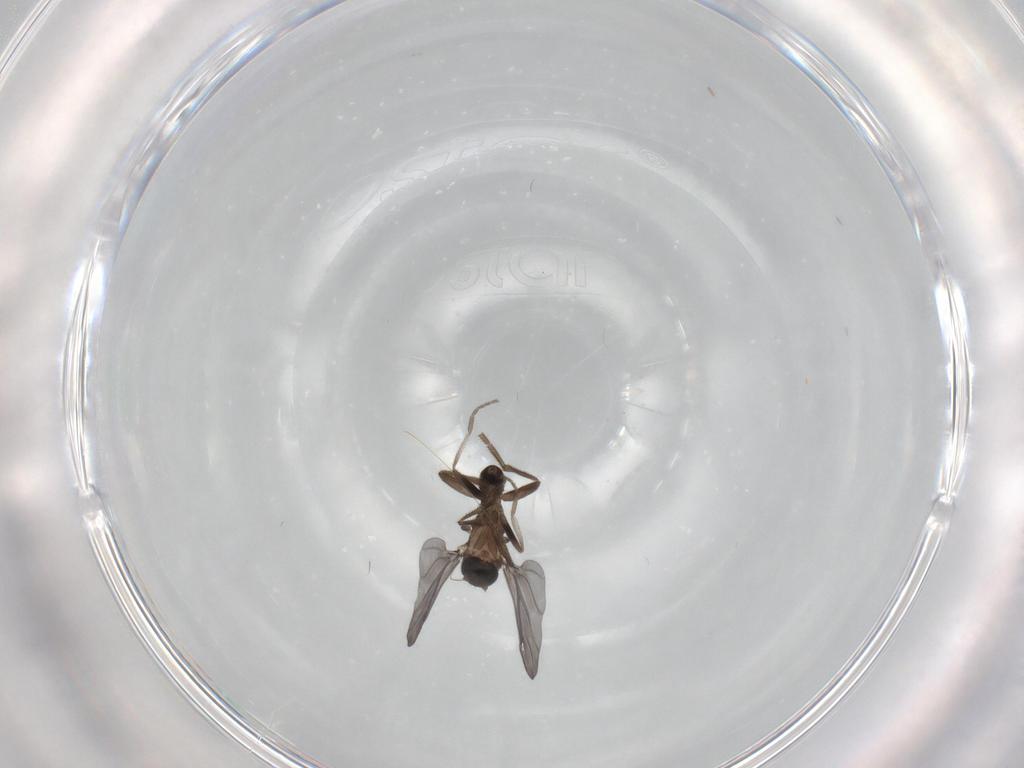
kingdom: Animalia
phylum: Arthropoda
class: Insecta
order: Diptera
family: Phoridae
